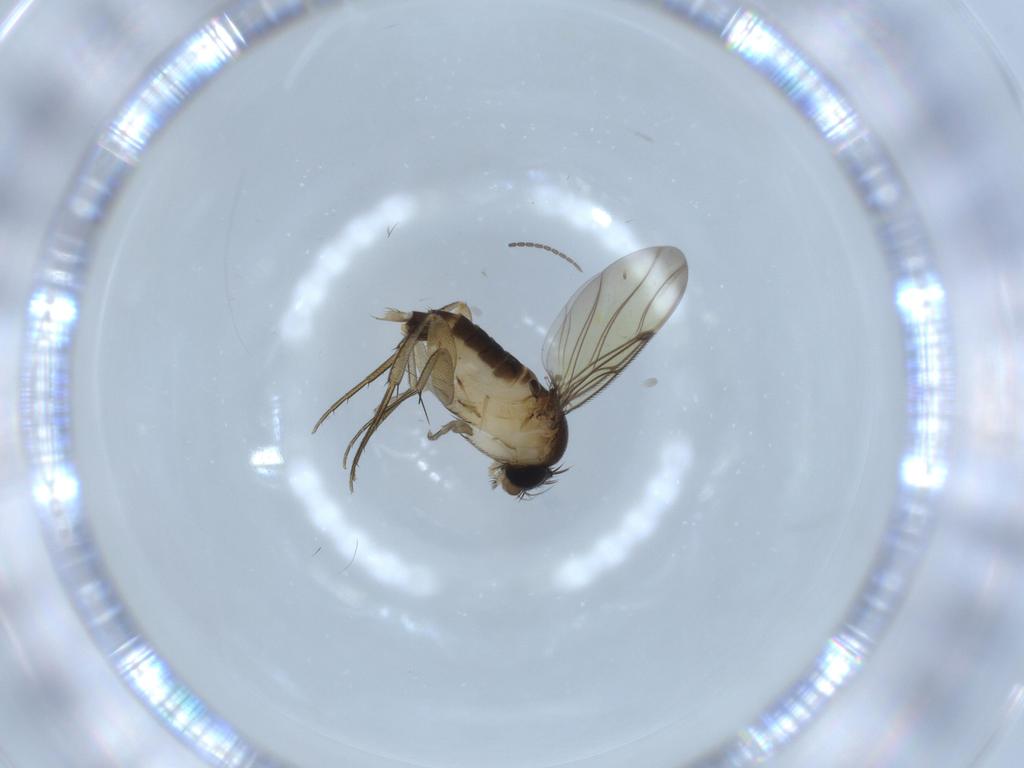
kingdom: Animalia
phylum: Arthropoda
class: Insecta
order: Diptera
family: Sciaridae
